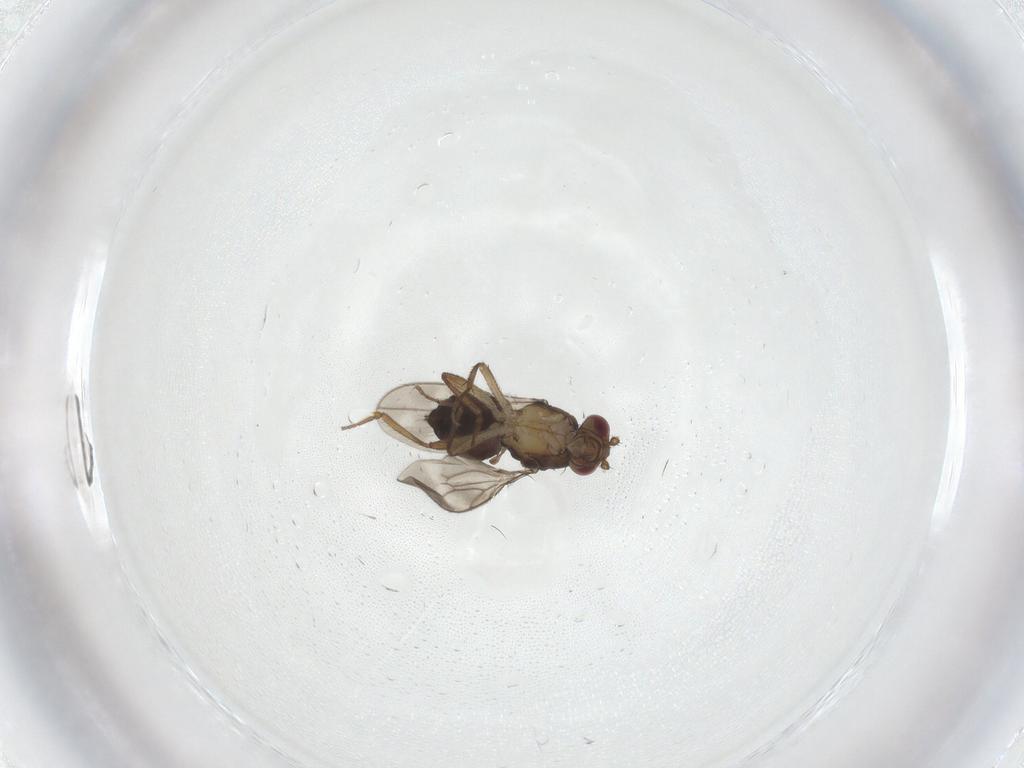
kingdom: Animalia
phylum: Arthropoda
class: Insecta
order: Diptera
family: Sphaeroceridae
